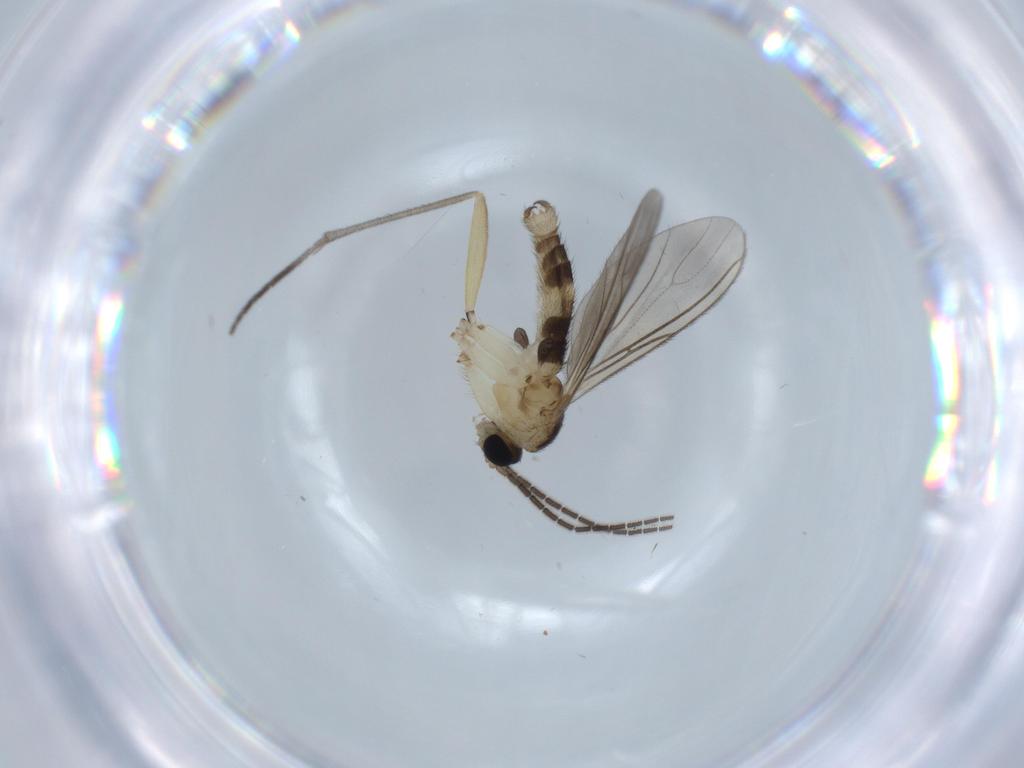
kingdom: Animalia
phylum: Arthropoda
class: Insecta
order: Diptera
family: Sciaridae
